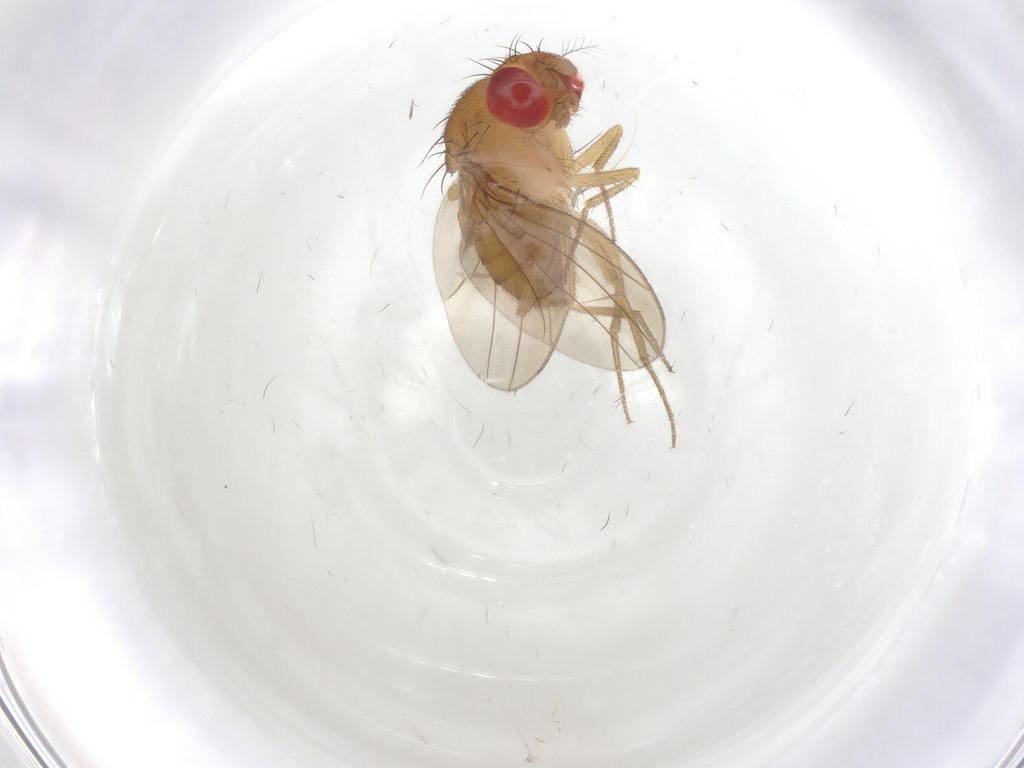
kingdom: Animalia
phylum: Arthropoda
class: Insecta
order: Diptera
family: Drosophilidae
